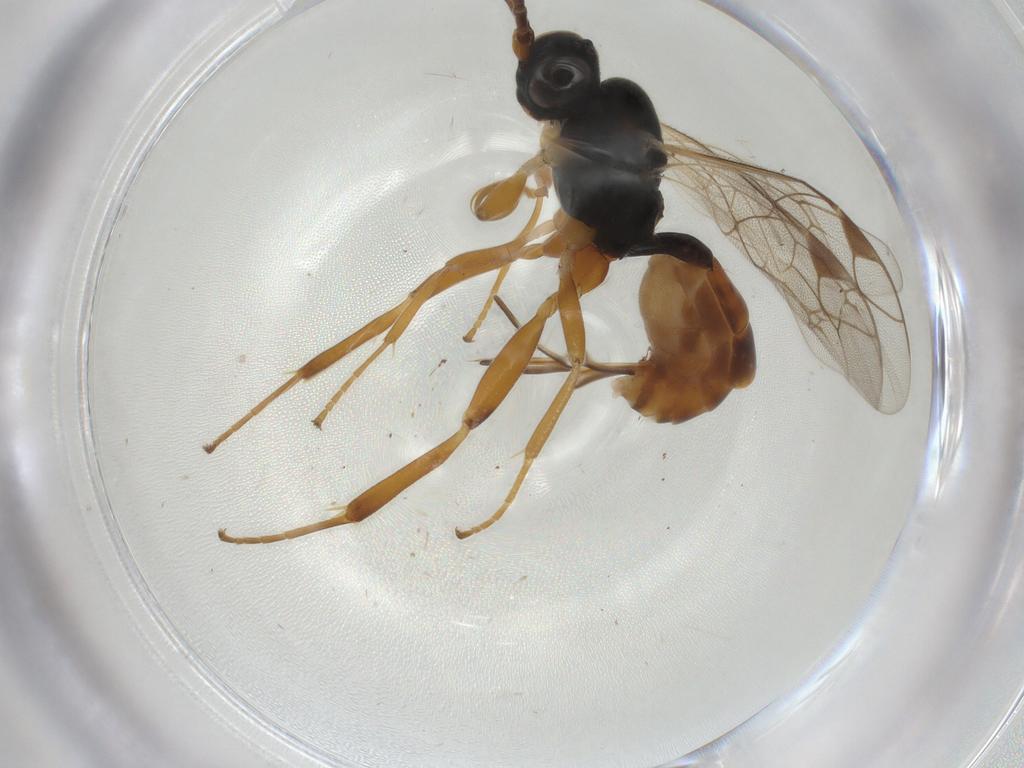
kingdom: Animalia
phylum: Arthropoda
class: Insecta
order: Hymenoptera
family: Ichneumonidae
